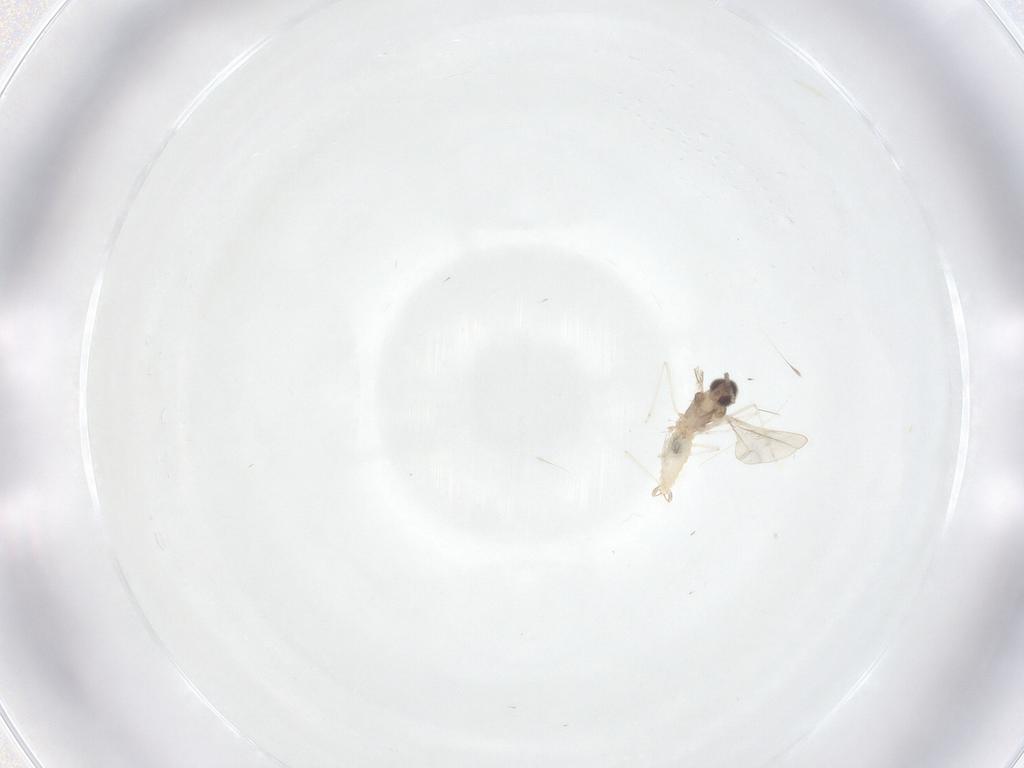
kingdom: Animalia
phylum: Arthropoda
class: Insecta
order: Diptera
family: Cecidomyiidae
